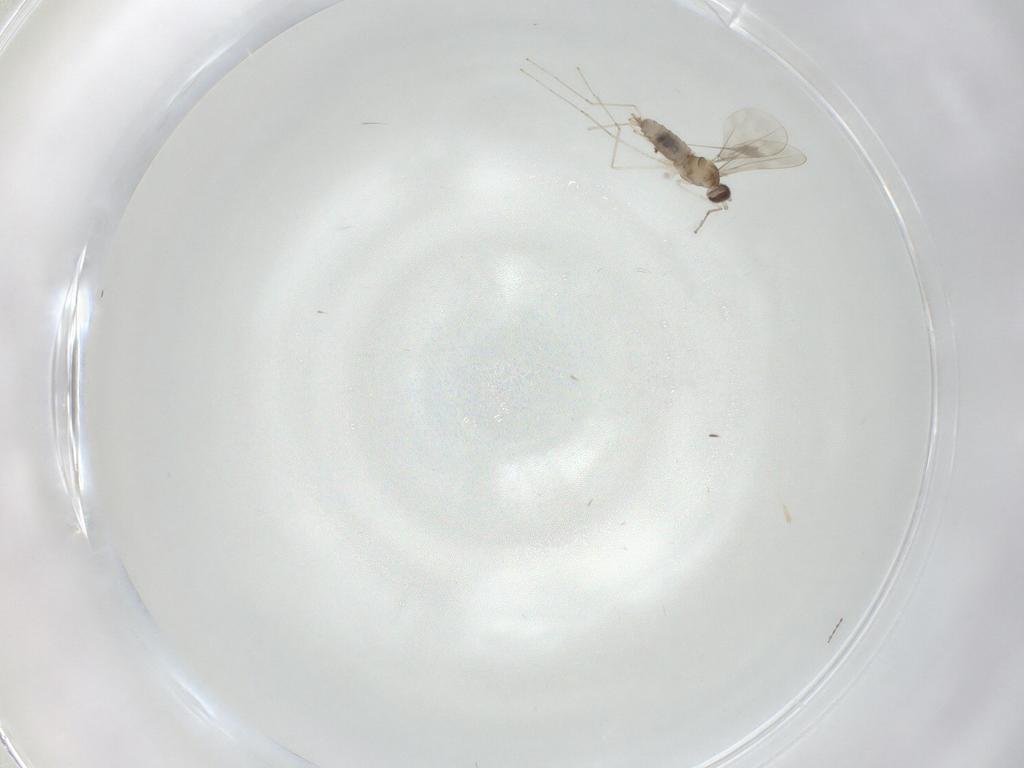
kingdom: Animalia
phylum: Arthropoda
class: Insecta
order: Diptera
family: Cecidomyiidae
